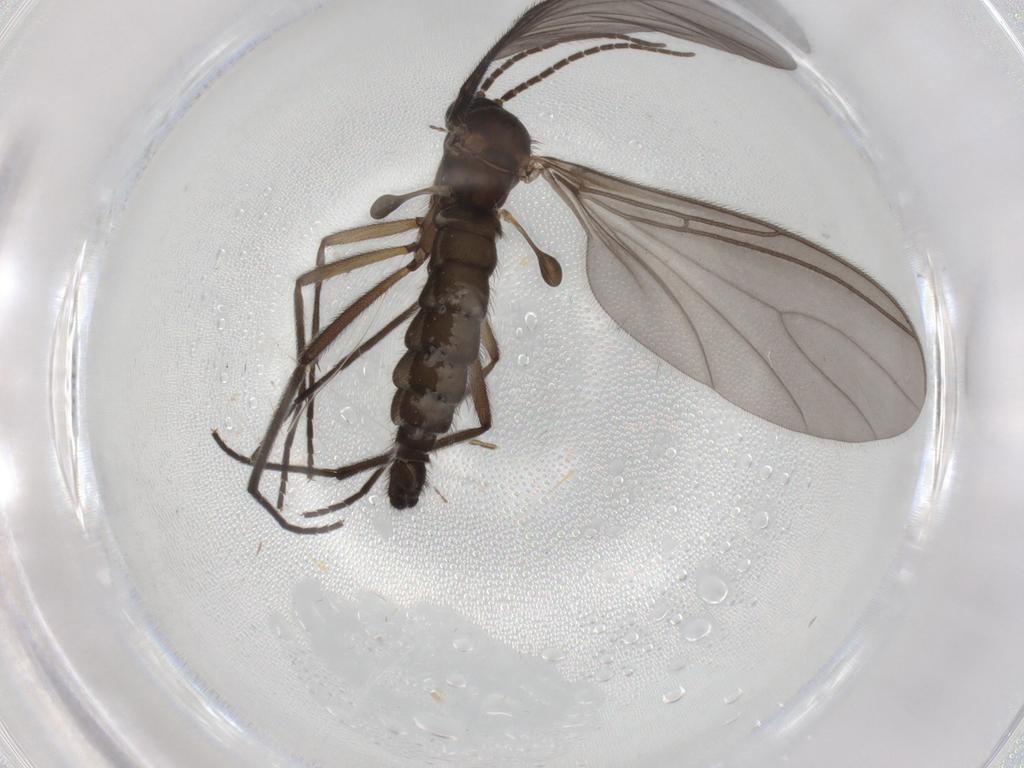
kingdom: Animalia
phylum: Arthropoda
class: Insecta
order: Diptera
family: Sciaridae
